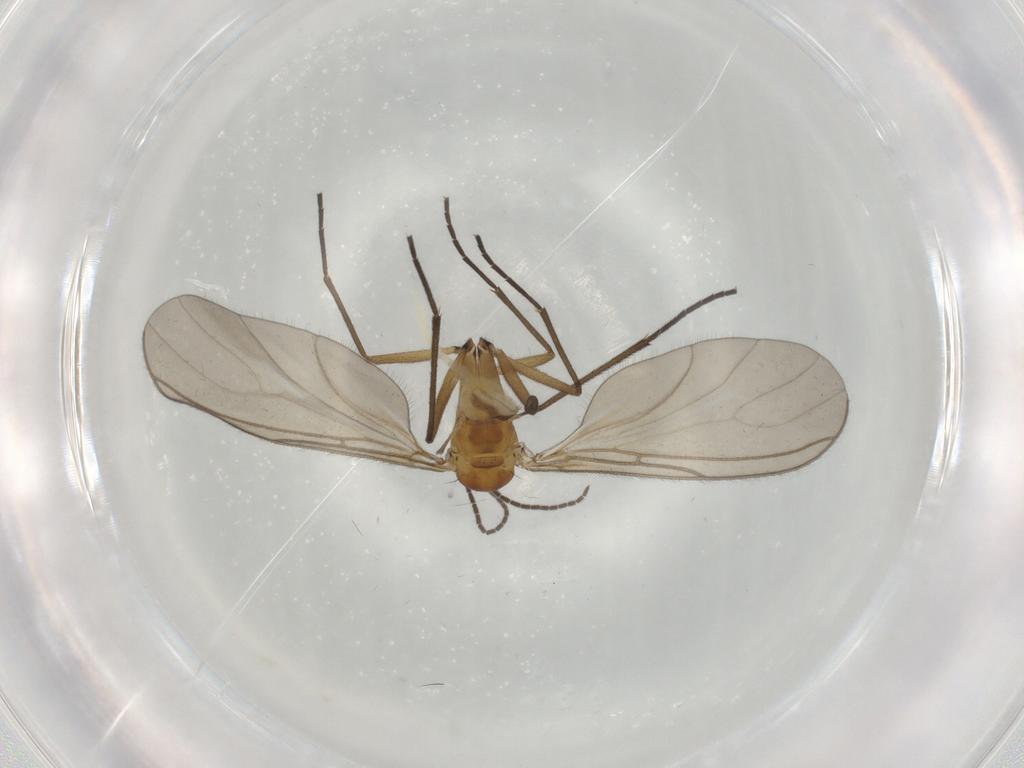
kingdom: Animalia
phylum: Arthropoda
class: Insecta
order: Diptera
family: Sciaridae
